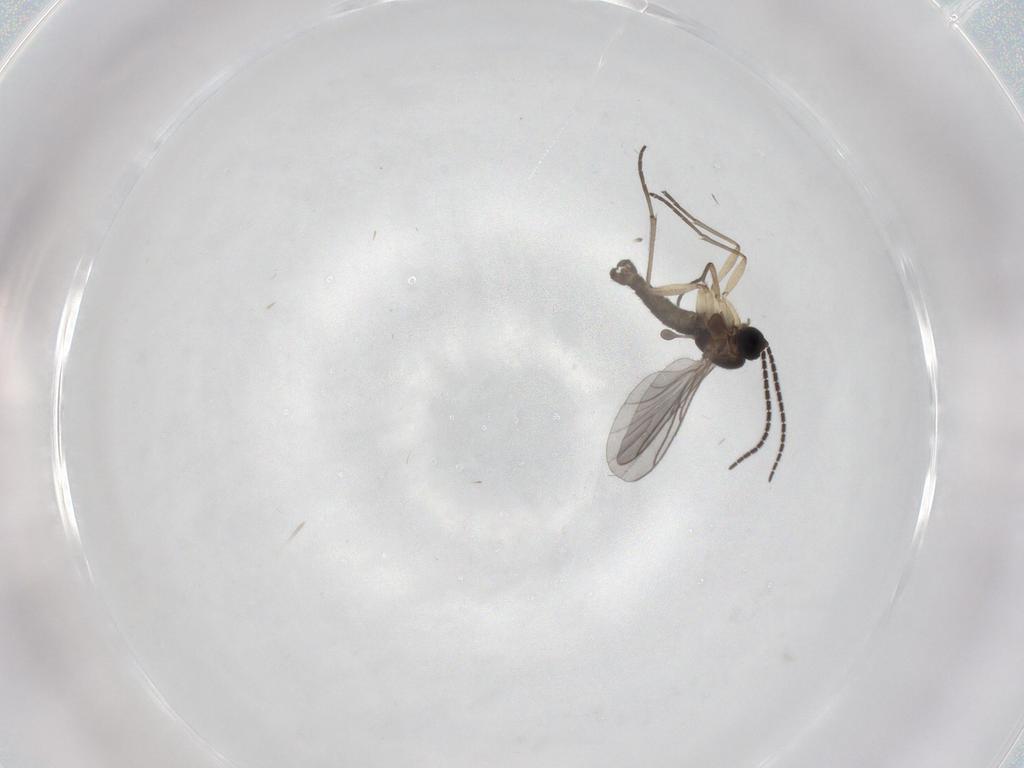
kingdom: Animalia
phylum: Arthropoda
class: Insecta
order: Diptera
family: Sciaridae
